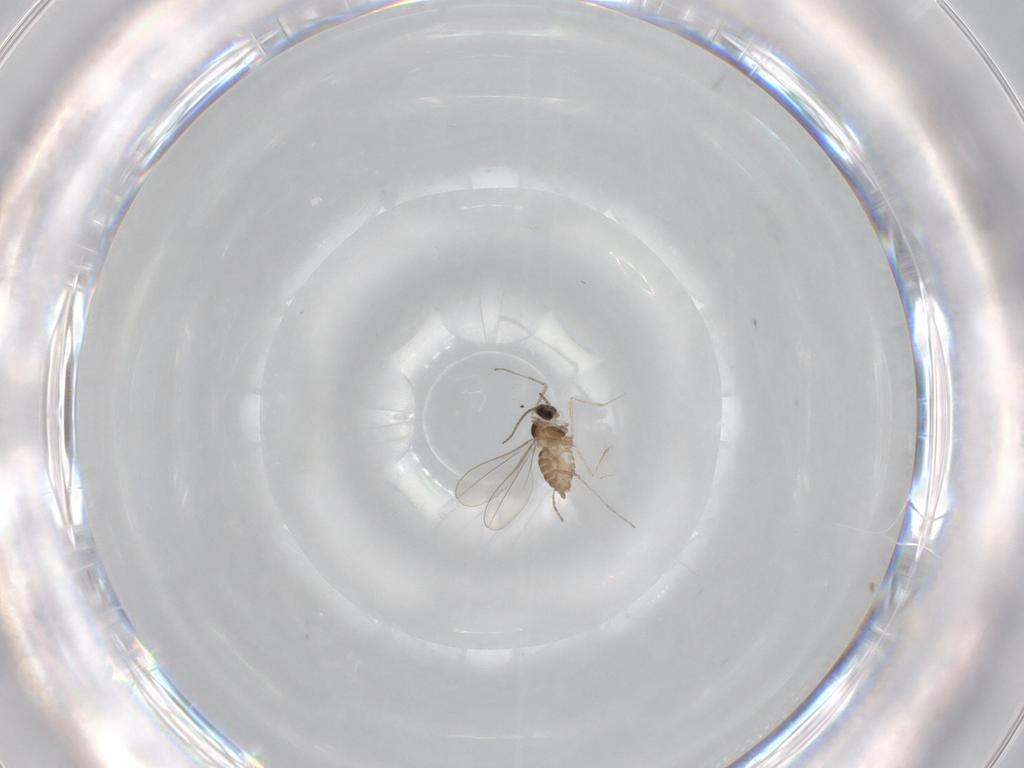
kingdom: Animalia
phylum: Arthropoda
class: Insecta
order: Diptera
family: Cecidomyiidae
